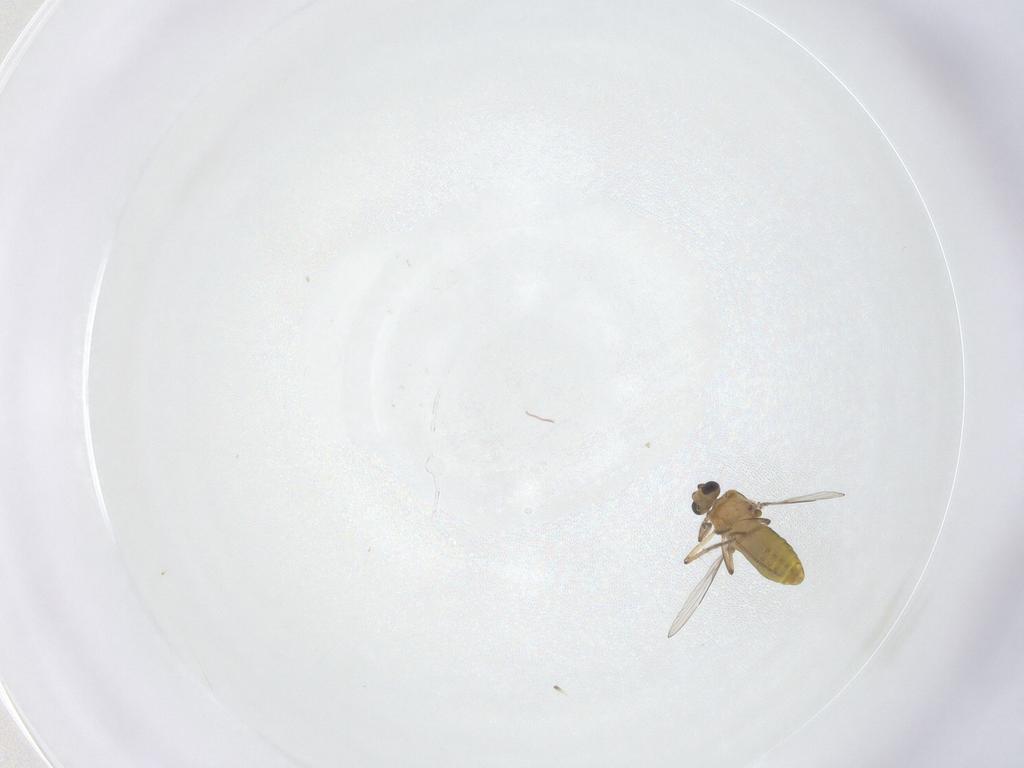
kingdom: Animalia
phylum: Arthropoda
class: Insecta
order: Diptera
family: Ceratopogonidae
